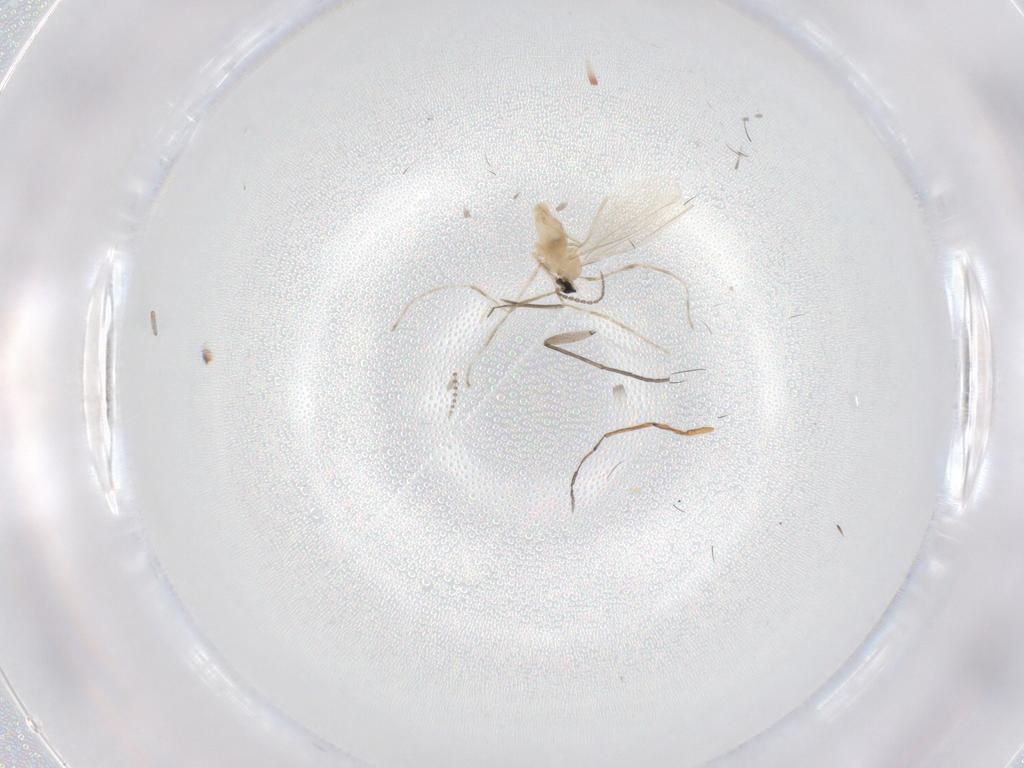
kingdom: Animalia
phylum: Arthropoda
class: Insecta
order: Diptera
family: Cecidomyiidae
